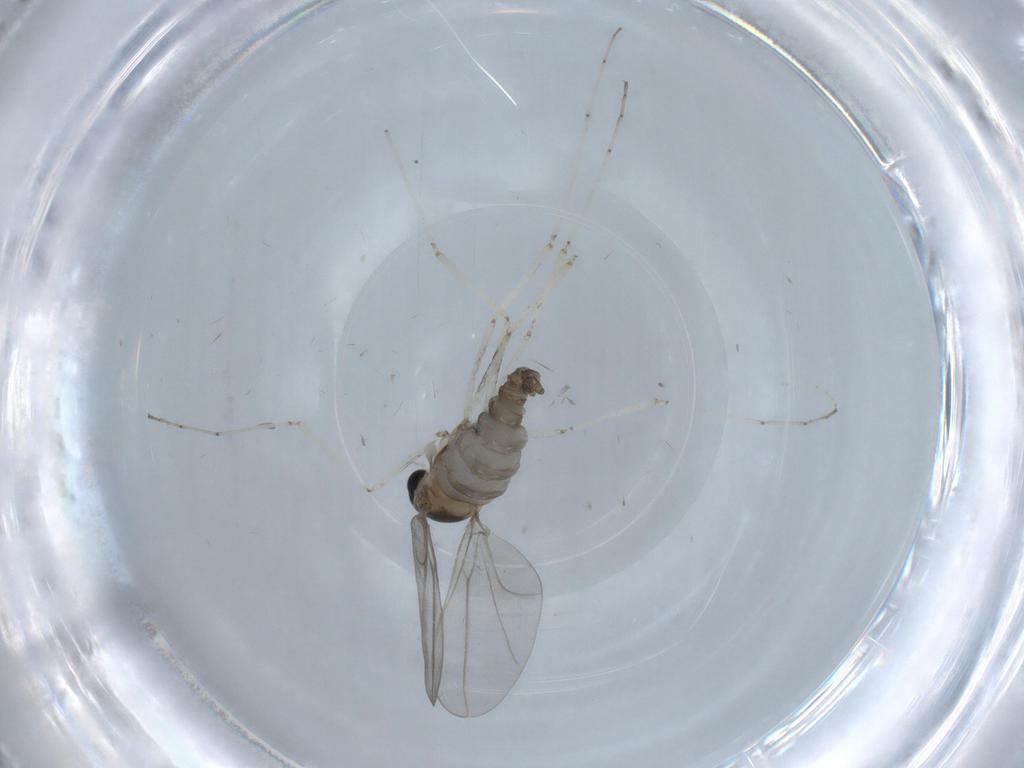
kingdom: Animalia
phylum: Arthropoda
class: Insecta
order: Diptera
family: Cecidomyiidae
